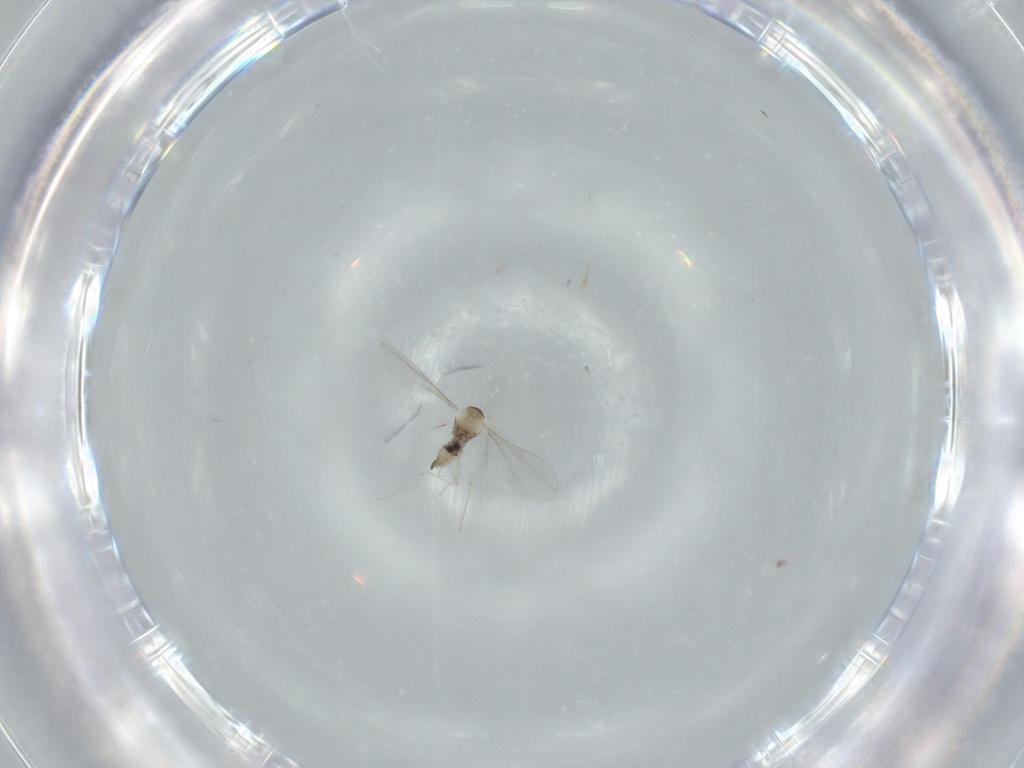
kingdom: Animalia
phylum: Arthropoda
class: Insecta
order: Diptera
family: Cecidomyiidae
